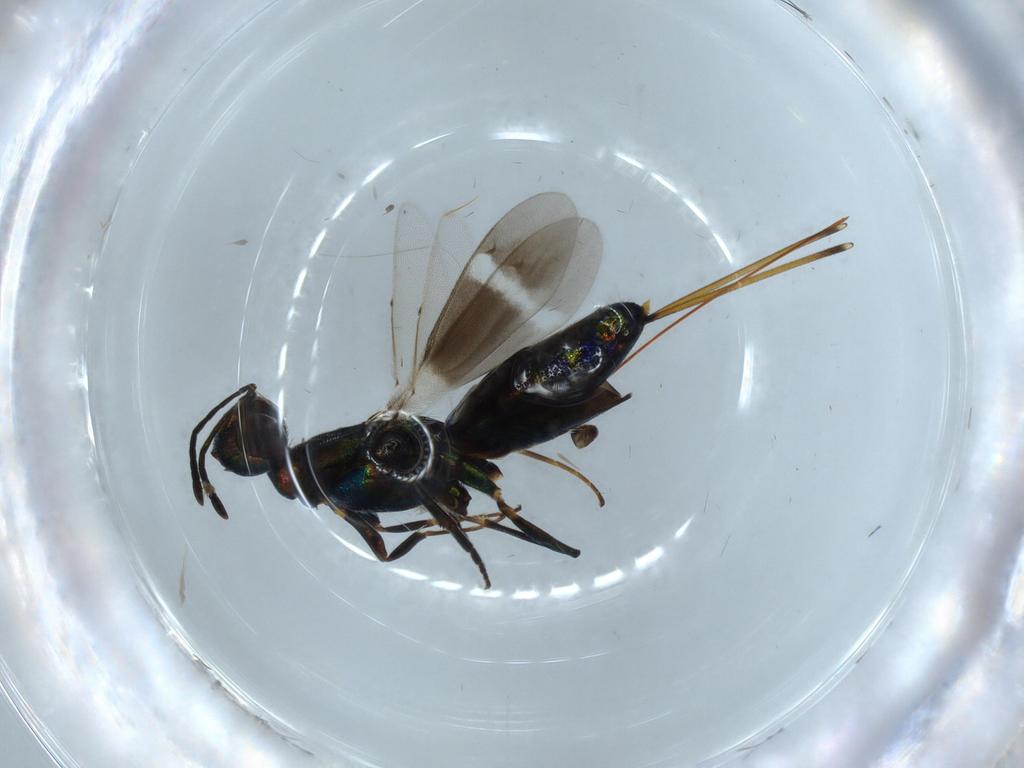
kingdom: Animalia
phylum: Arthropoda
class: Insecta
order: Hymenoptera
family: Eupelmidae
